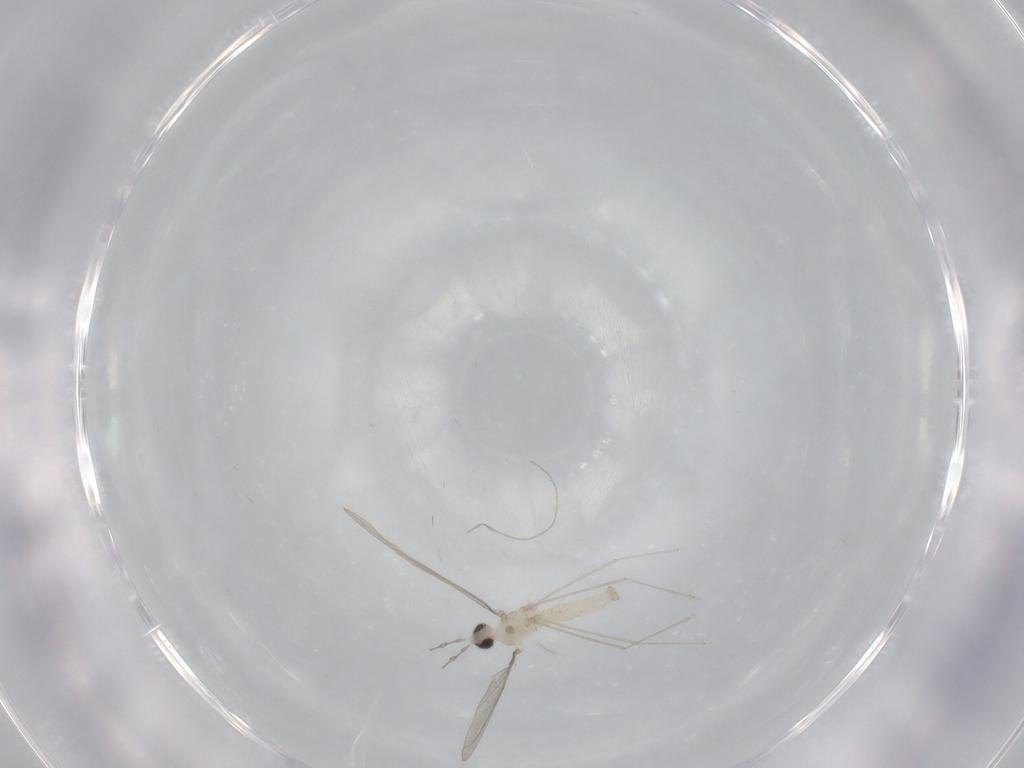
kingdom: Animalia
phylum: Arthropoda
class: Insecta
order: Diptera
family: Cecidomyiidae
